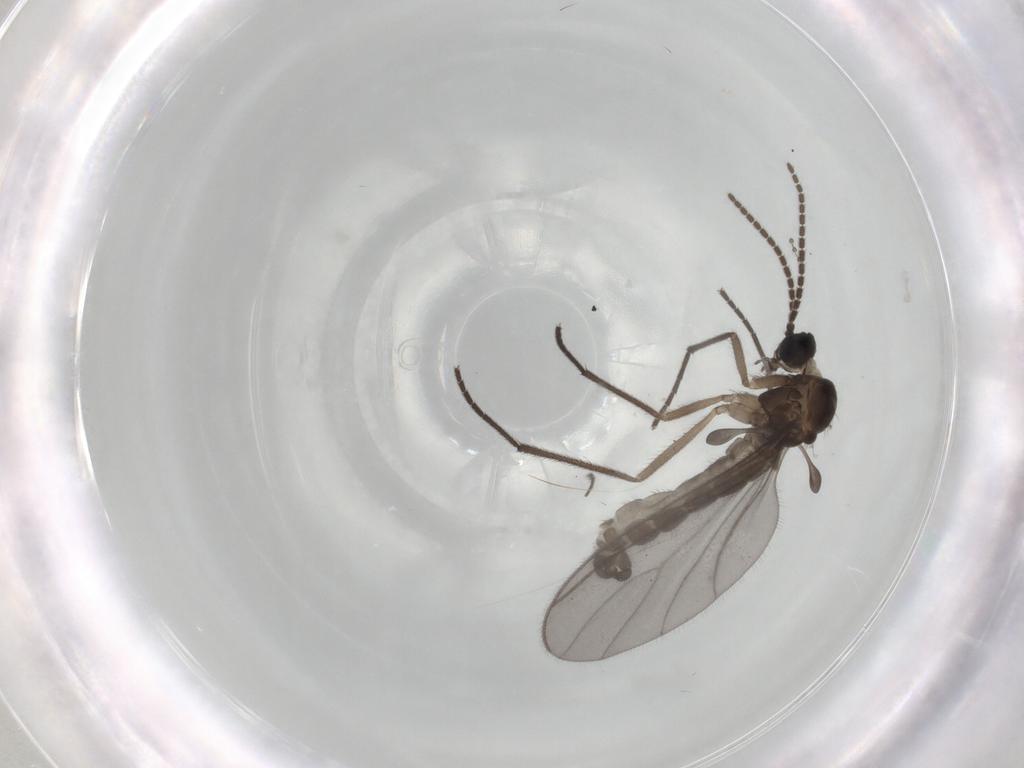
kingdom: Animalia
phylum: Arthropoda
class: Insecta
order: Diptera
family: Sciaridae
